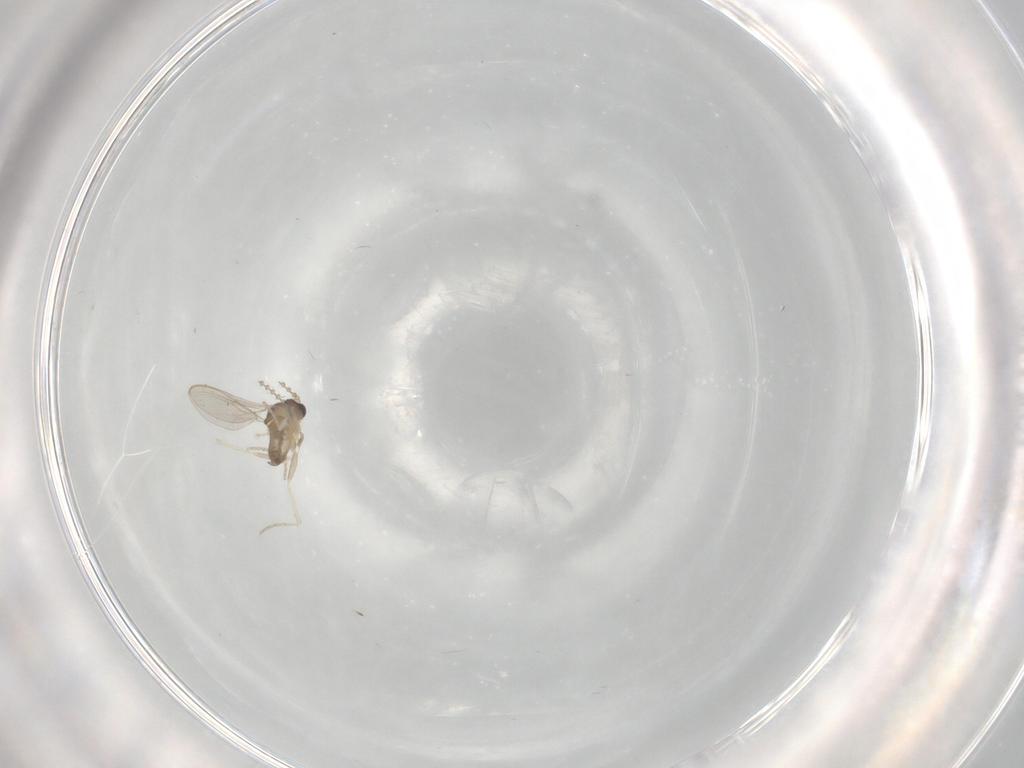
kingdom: Animalia
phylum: Arthropoda
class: Insecta
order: Diptera
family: Cecidomyiidae
